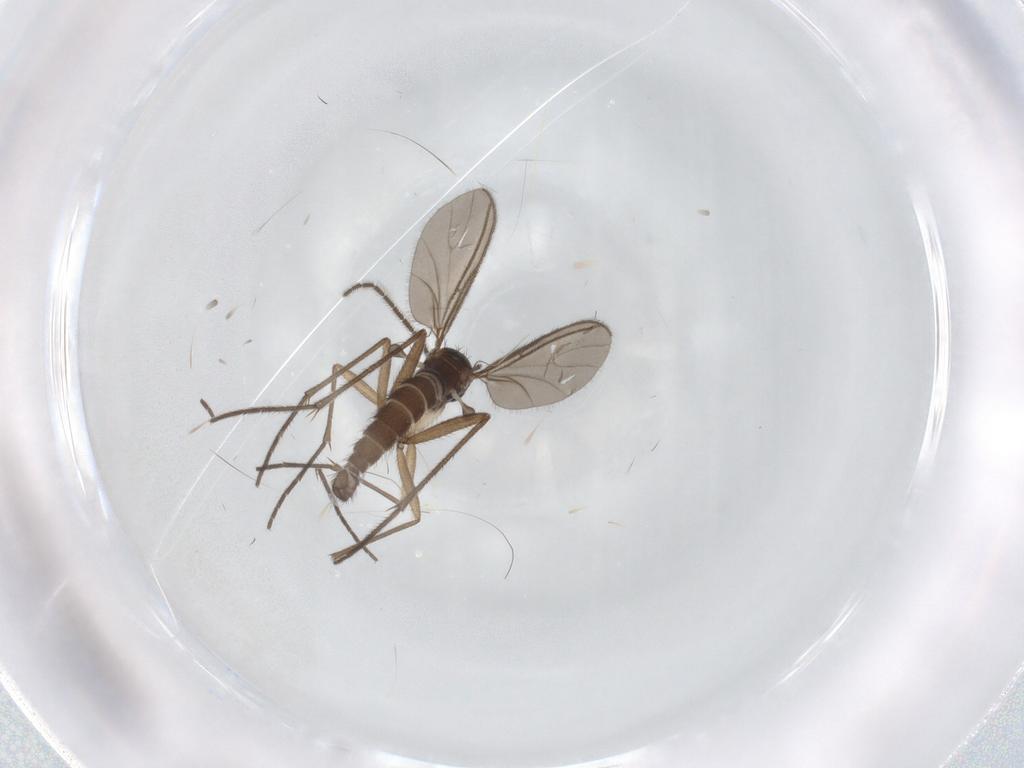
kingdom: Animalia
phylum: Arthropoda
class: Insecta
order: Diptera
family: Sciaridae
